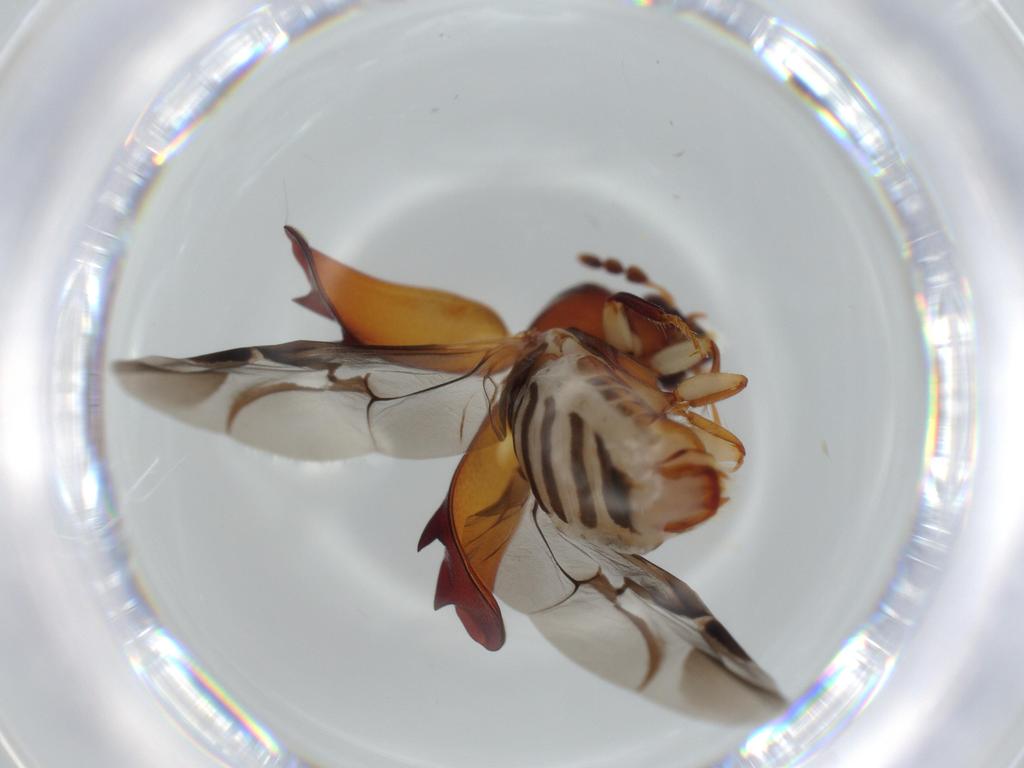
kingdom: Animalia
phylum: Arthropoda
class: Insecta
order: Coleoptera
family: Bostrichidae
